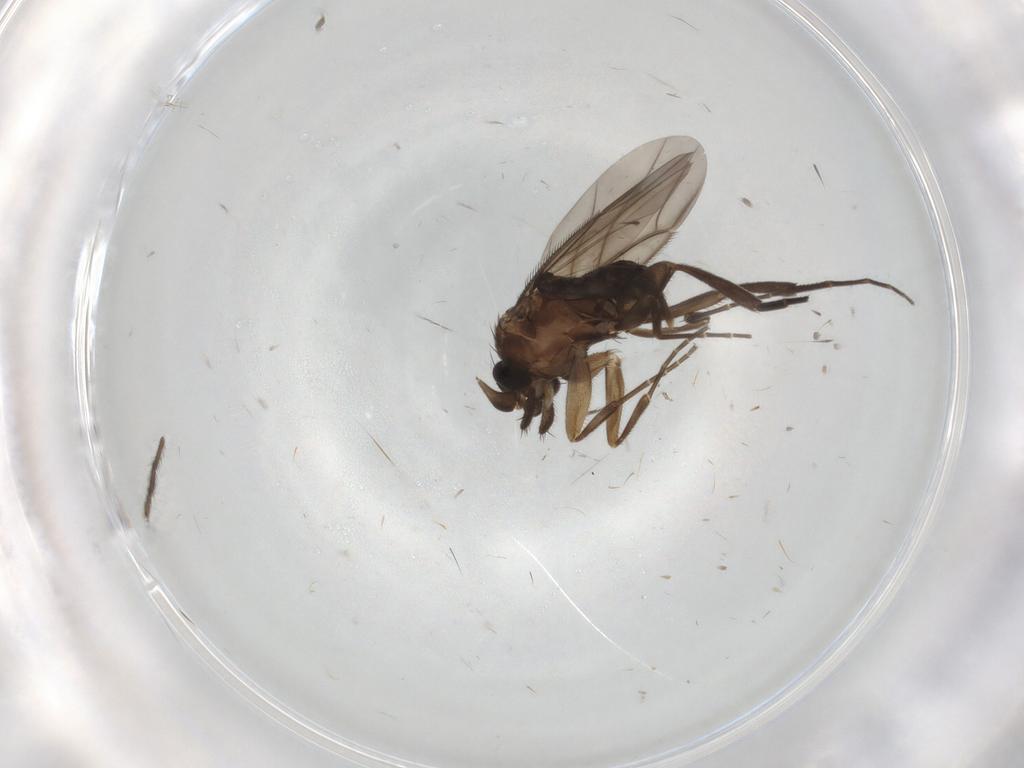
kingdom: Animalia
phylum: Arthropoda
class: Insecta
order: Diptera
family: Phoridae
